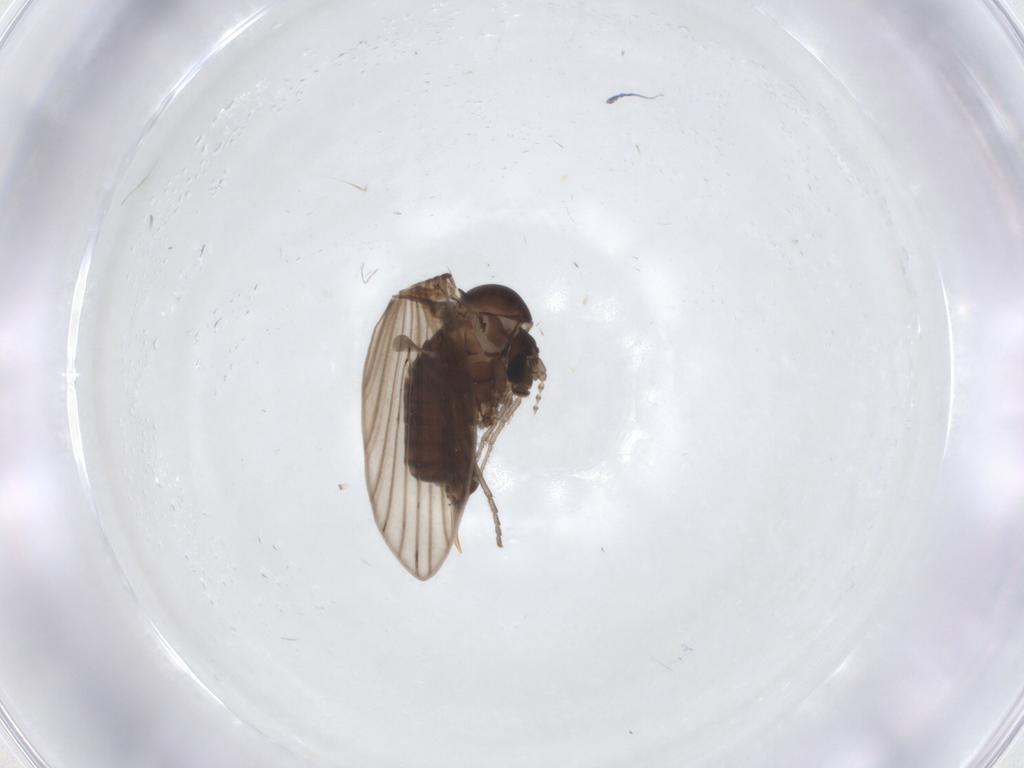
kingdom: Animalia
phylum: Arthropoda
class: Insecta
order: Diptera
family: Psychodidae
